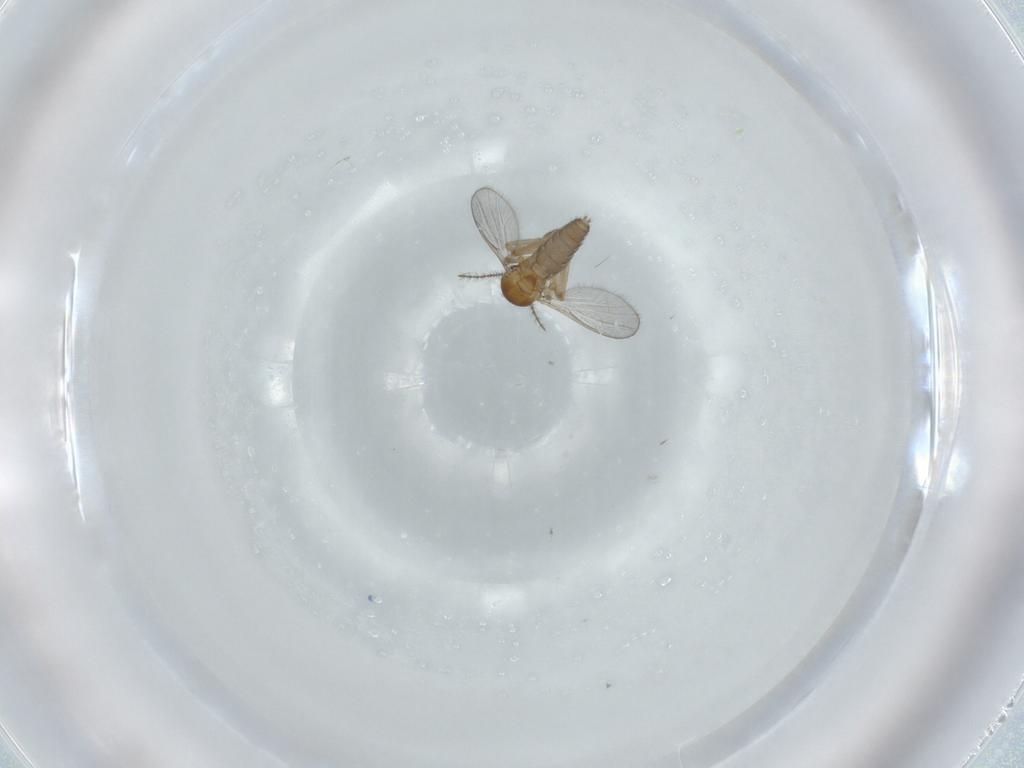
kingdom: Animalia
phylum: Arthropoda
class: Insecta
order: Diptera
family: Ceratopogonidae
